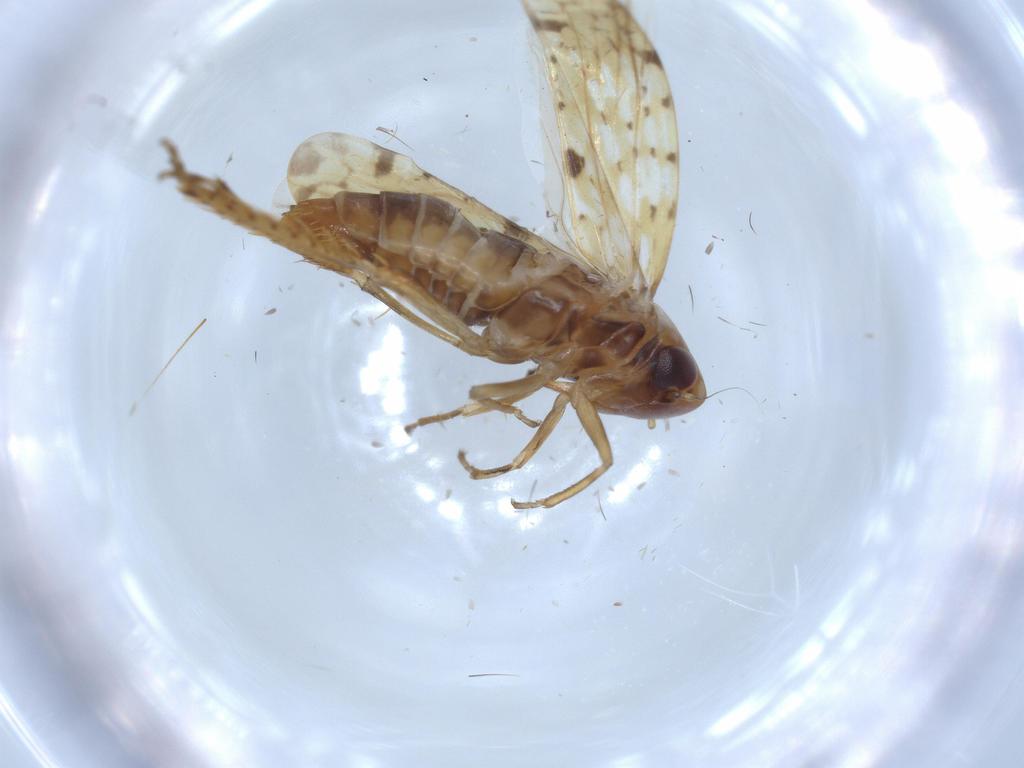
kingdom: Animalia
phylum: Arthropoda
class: Insecta
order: Hemiptera
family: Cicadellidae
